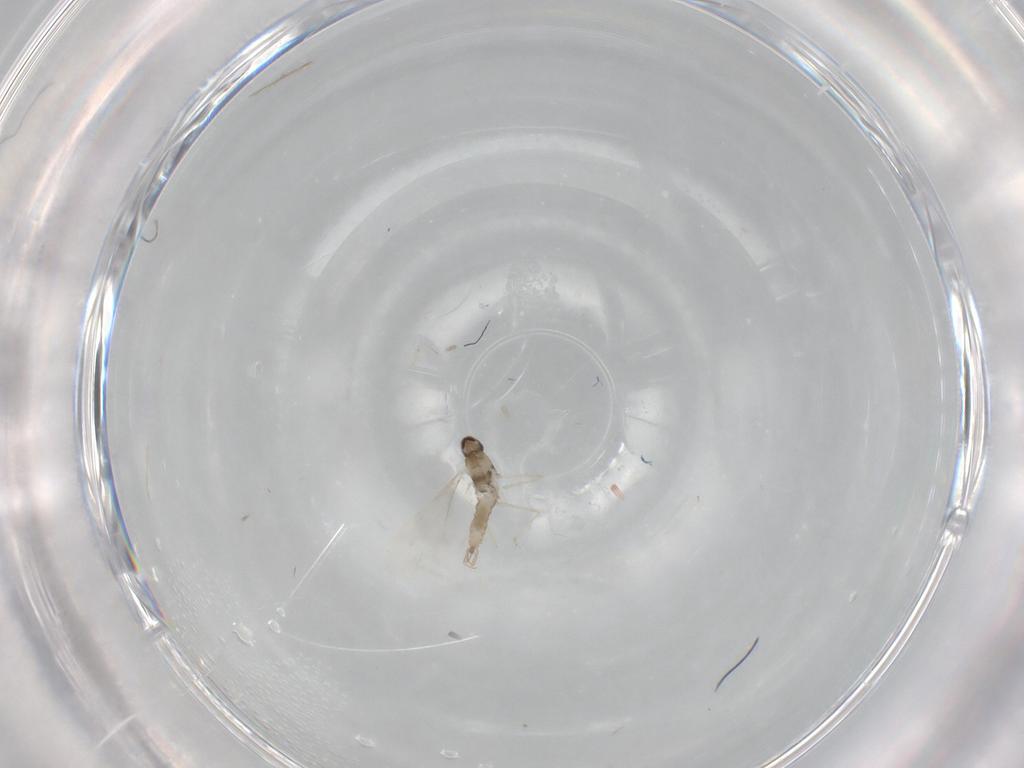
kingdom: Animalia
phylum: Arthropoda
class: Insecta
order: Diptera
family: Cecidomyiidae
